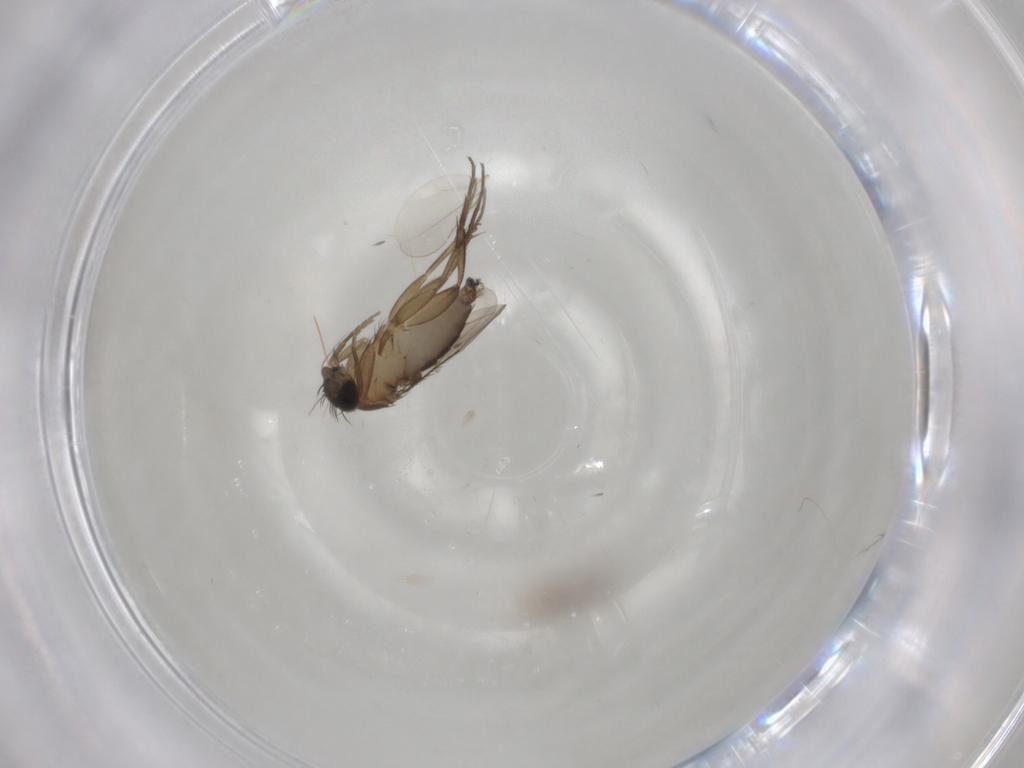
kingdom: Animalia
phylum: Arthropoda
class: Insecta
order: Diptera
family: Phoridae
